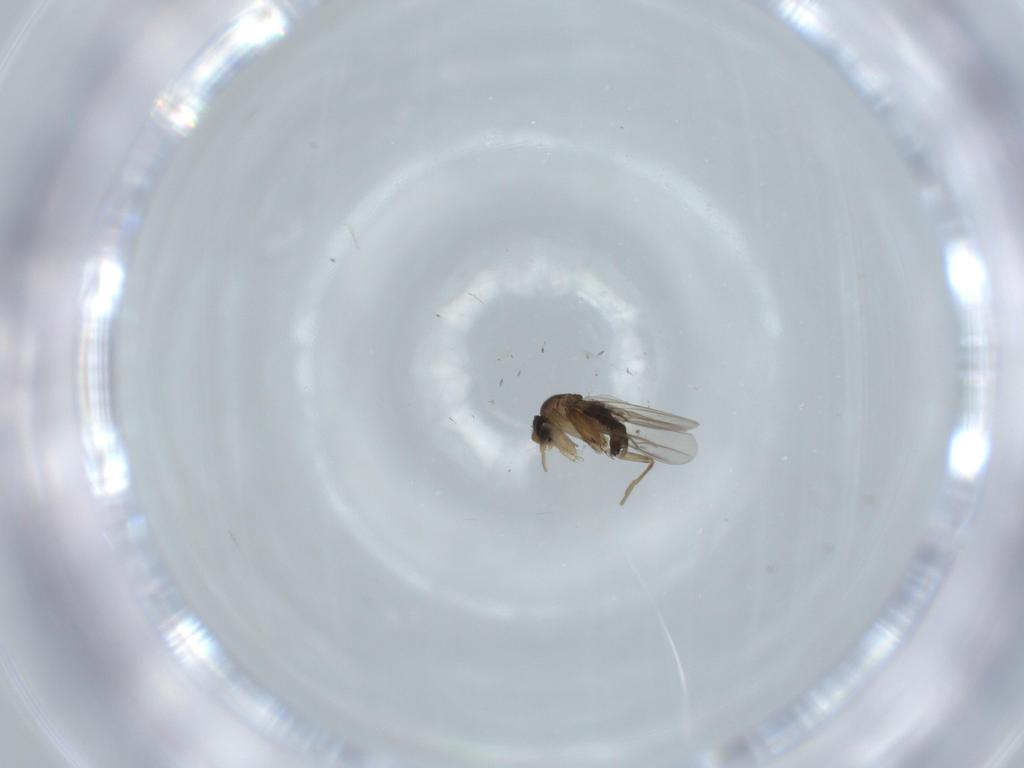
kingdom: Animalia
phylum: Arthropoda
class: Insecta
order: Diptera
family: Phoridae
